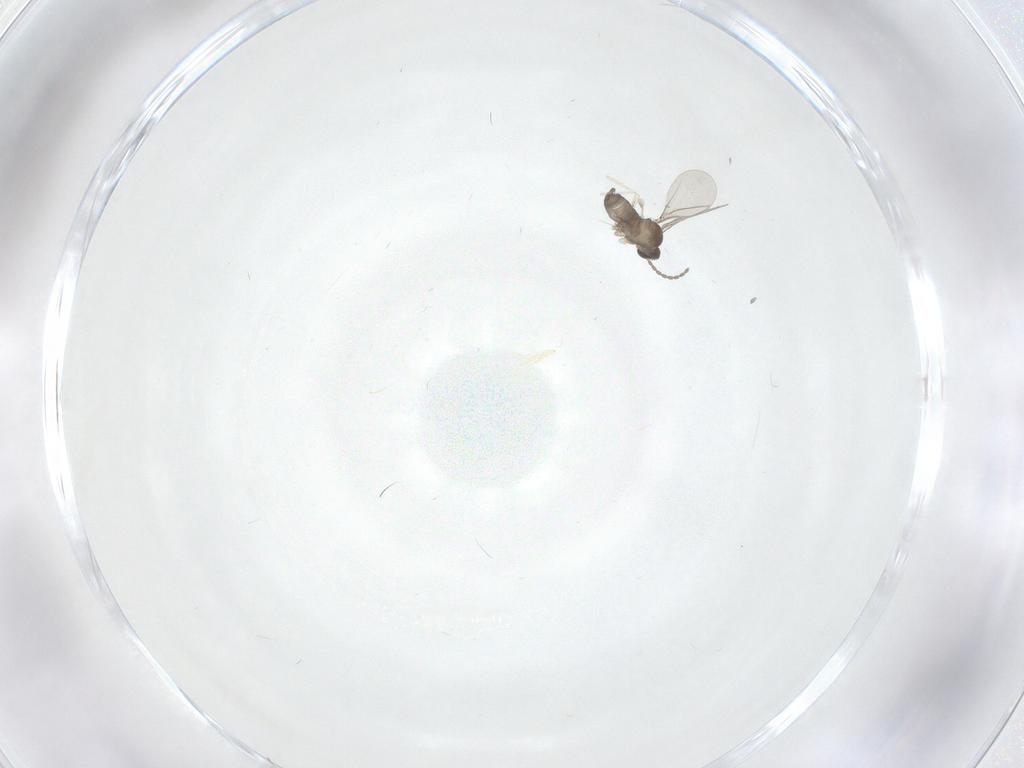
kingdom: Animalia
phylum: Arthropoda
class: Insecta
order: Diptera
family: Cecidomyiidae
